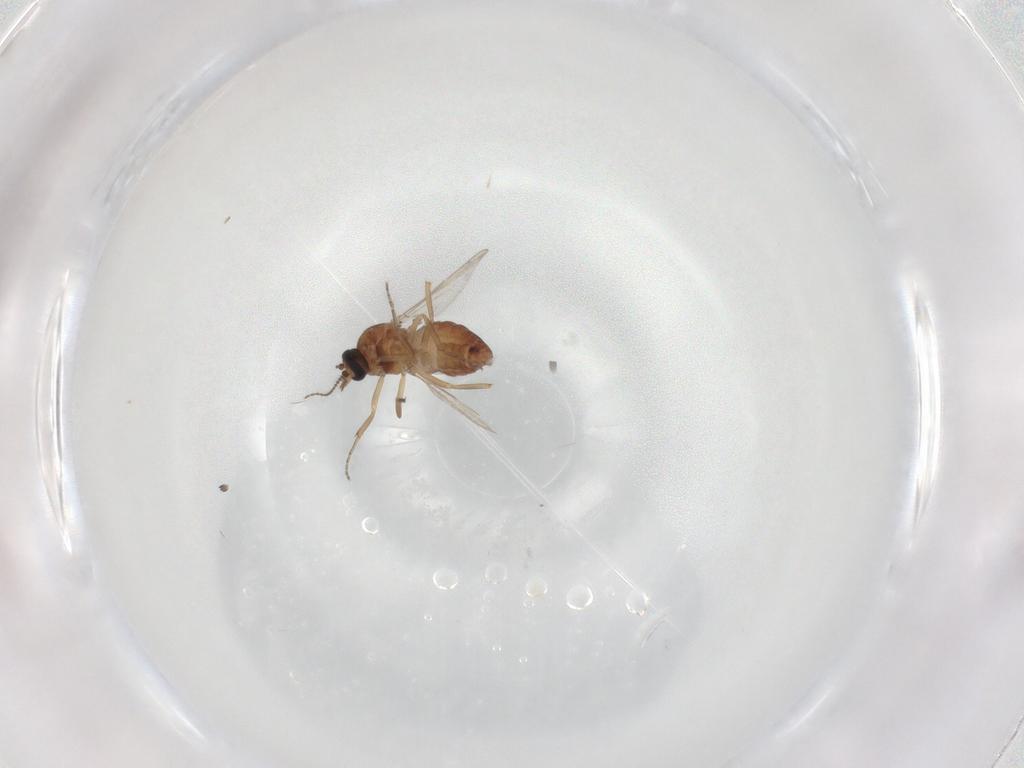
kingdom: Animalia
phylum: Arthropoda
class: Insecta
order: Diptera
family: Ceratopogonidae
